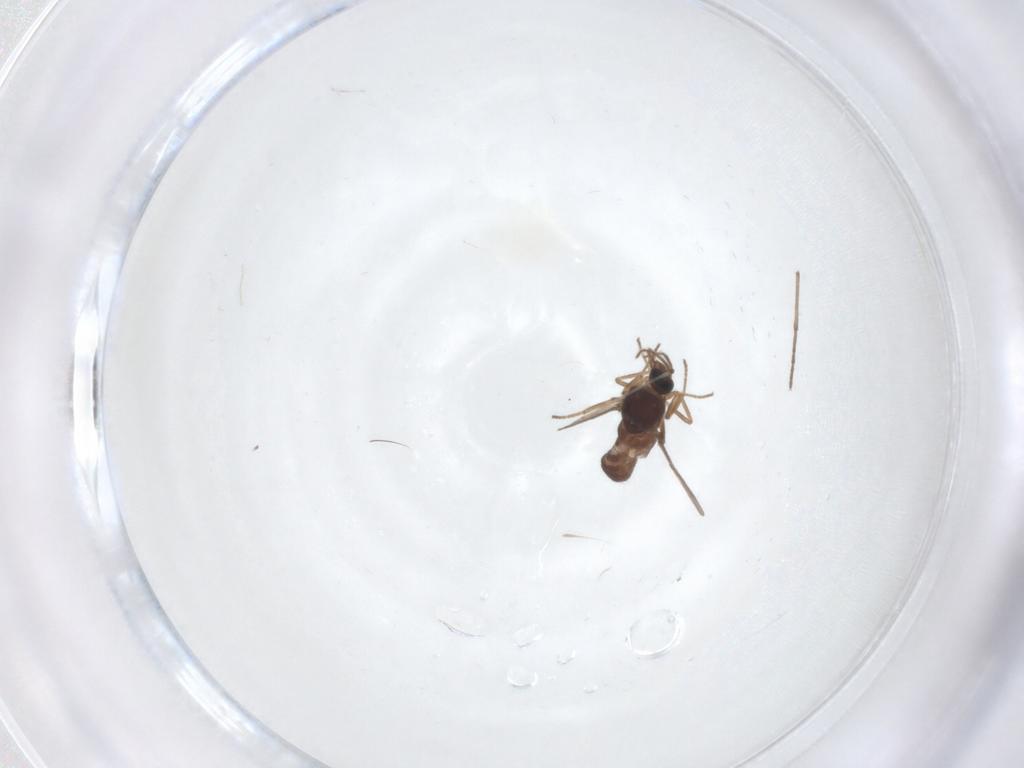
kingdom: Animalia
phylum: Arthropoda
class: Insecta
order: Diptera
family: Ceratopogonidae
